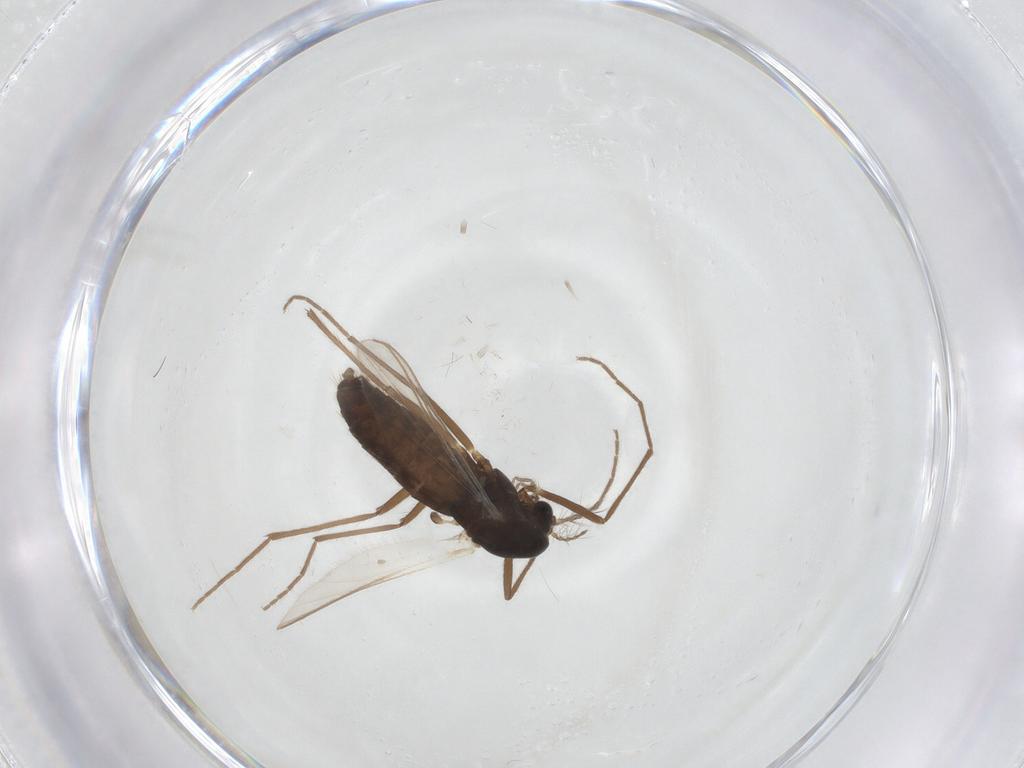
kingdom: Animalia
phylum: Arthropoda
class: Insecta
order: Diptera
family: Chironomidae
